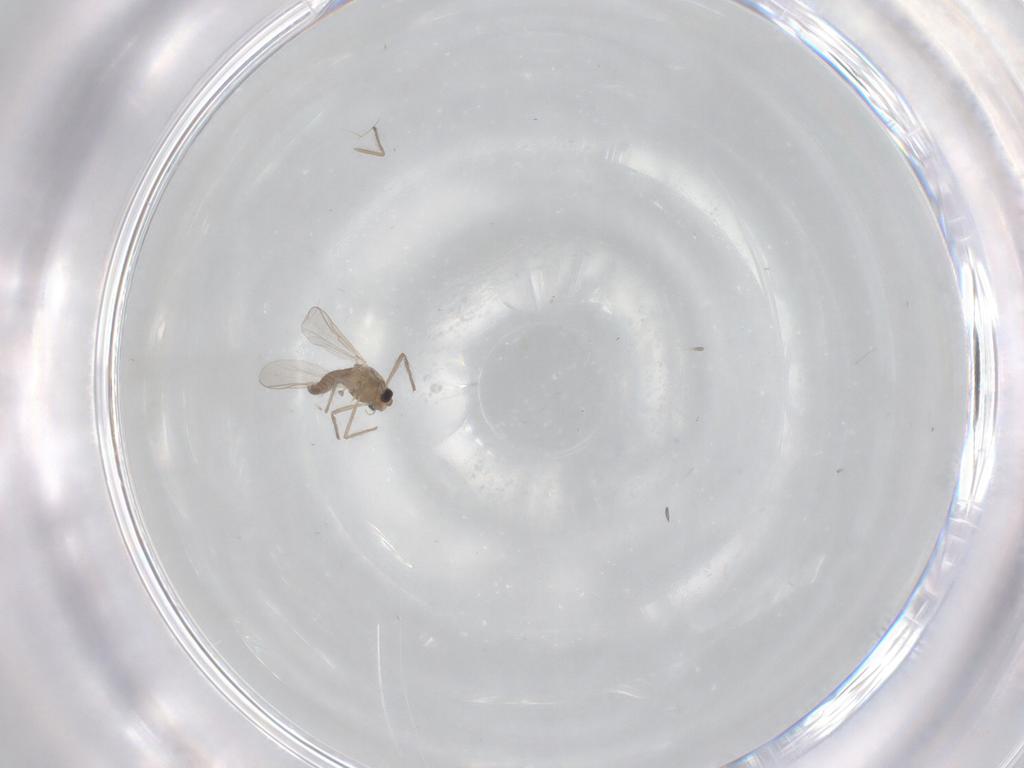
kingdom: Animalia
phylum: Arthropoda
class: Insecta
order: Diptera
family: Chironomidae
